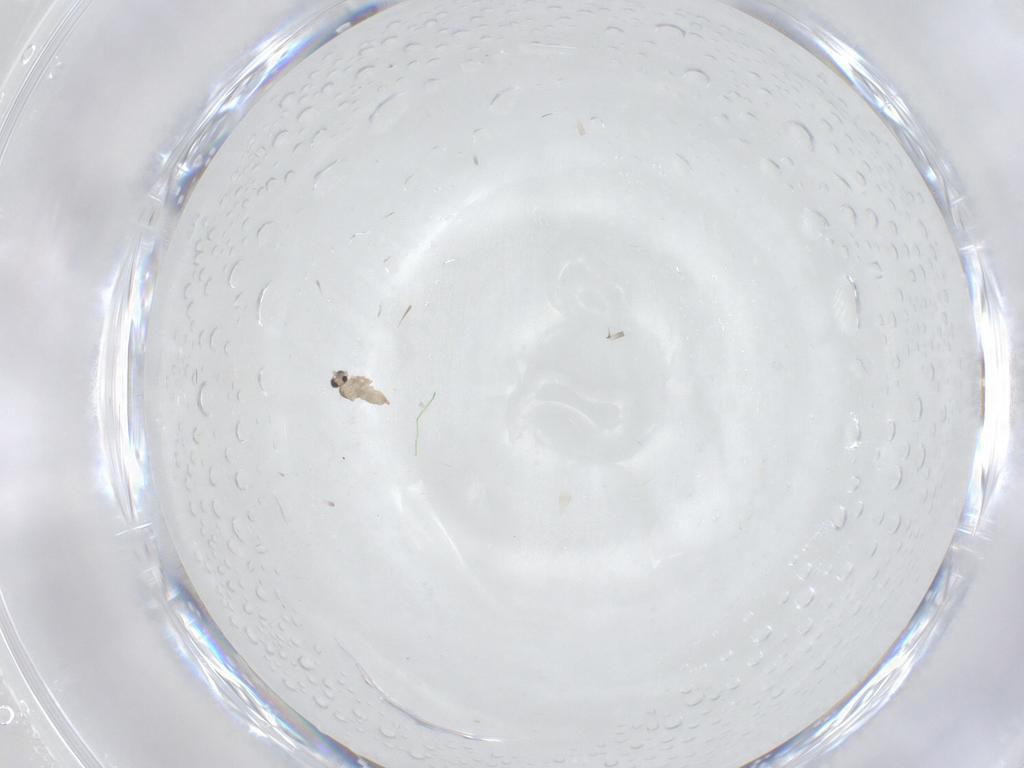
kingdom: Animalia
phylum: Arthropoda
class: Insecta
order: Diptera
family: Cecidomyiidae
